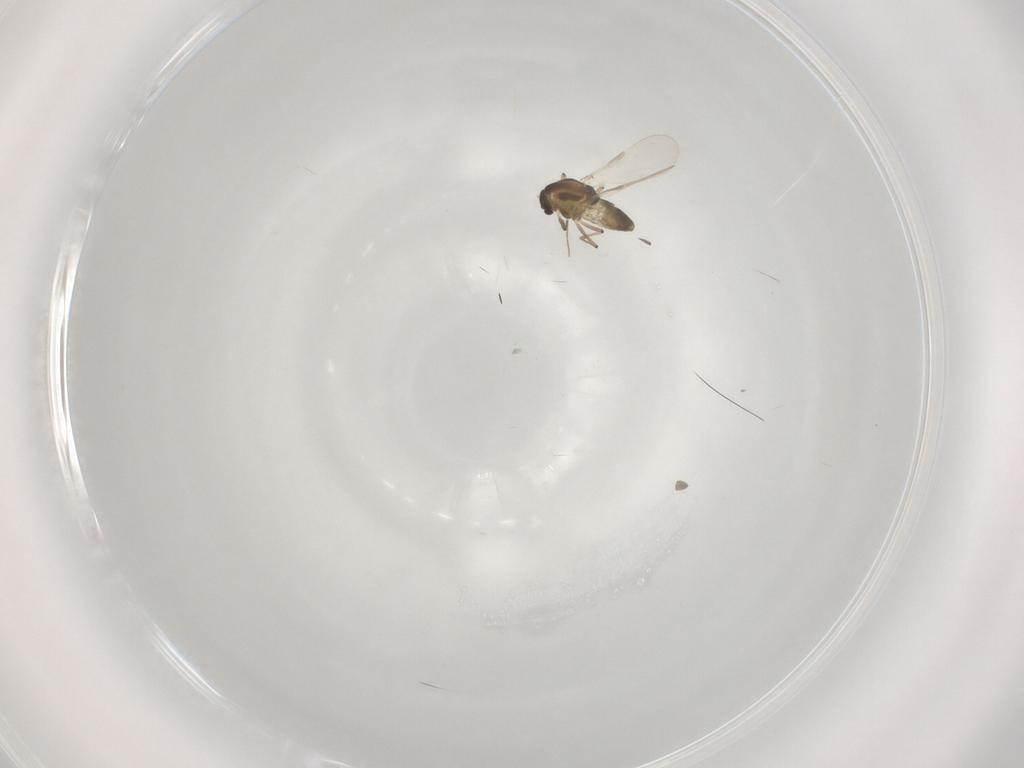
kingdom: Animalia
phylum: Arthropoda
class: Insecta
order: Diptera
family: Chironomidae
